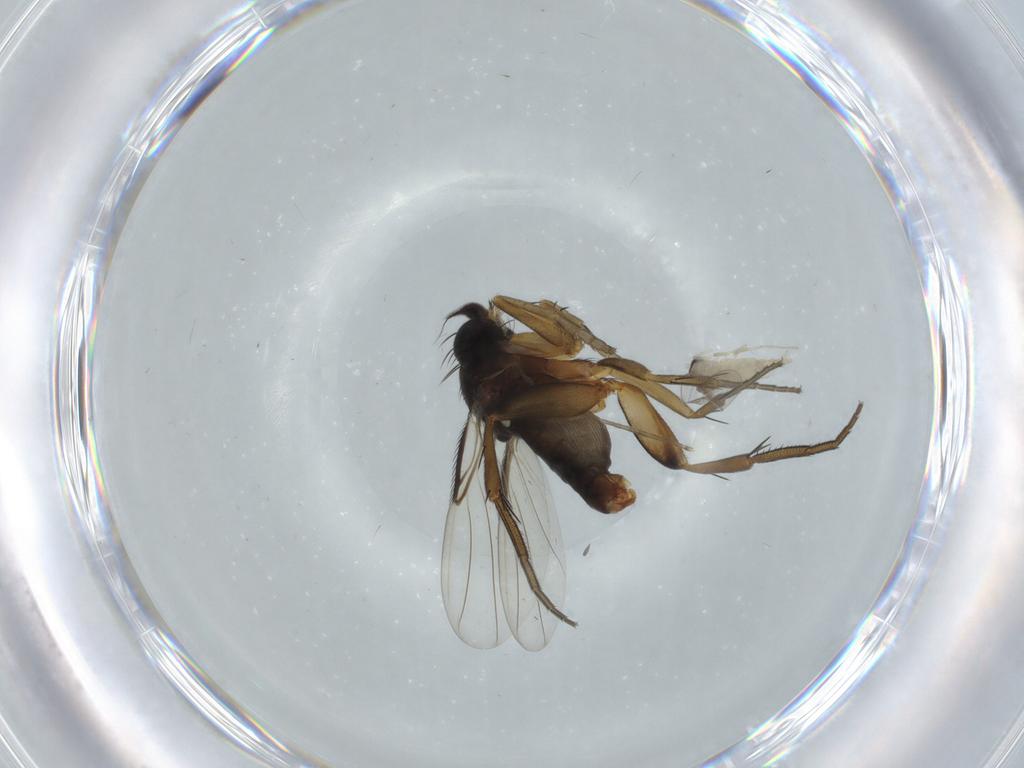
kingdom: Animalia
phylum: Arthropoda
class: Insecta
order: Diptera
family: Phoridae
